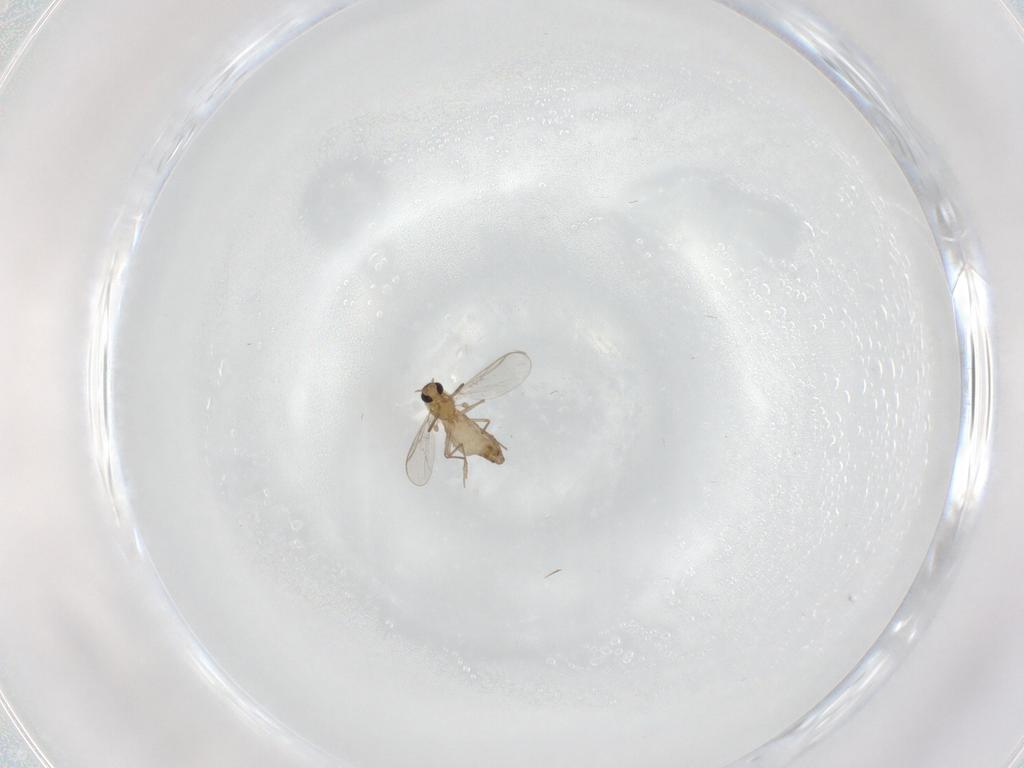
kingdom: Animalia
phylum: Arthropoda
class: Insecta
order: Diptera
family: Chironomidae
